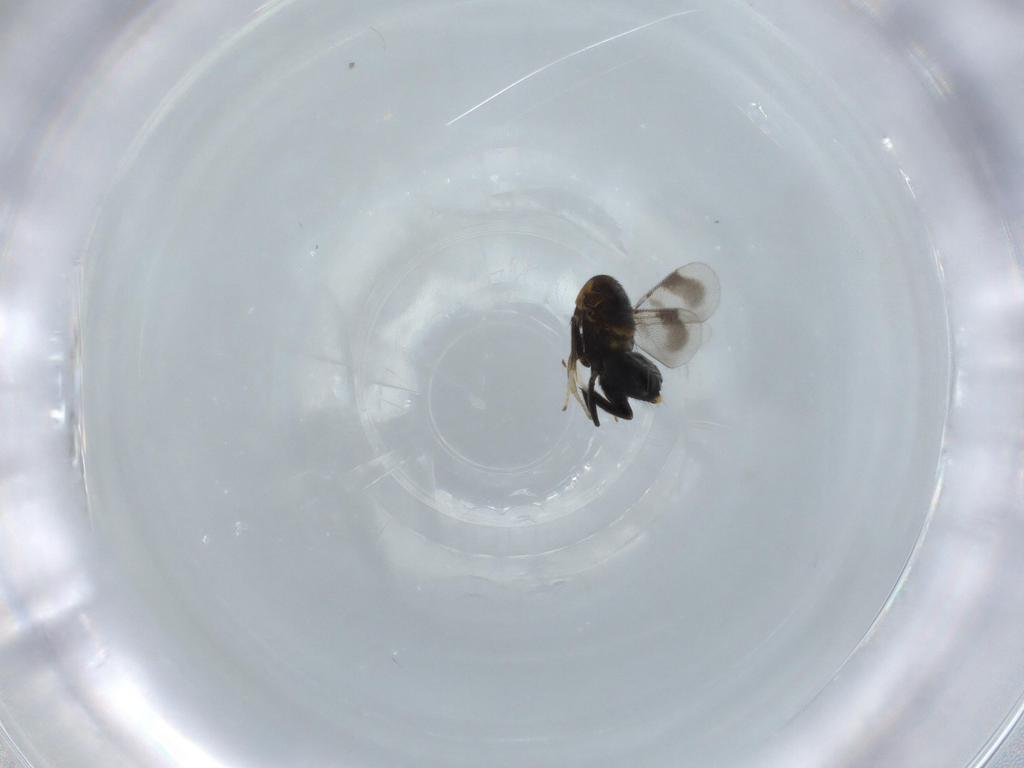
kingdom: Animalia
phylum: Arthropoda
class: Insecta
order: Hymenoptera
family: Aphelinidae
